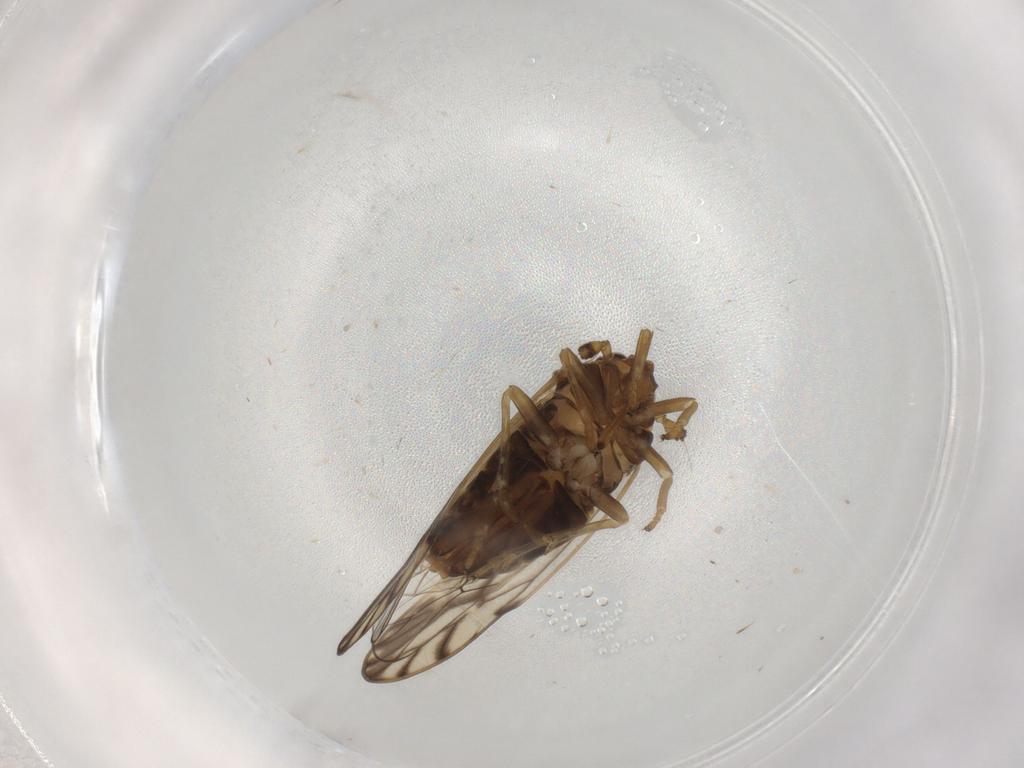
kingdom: Animalia
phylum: Arthropoda
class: Insecta
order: Hemiptera
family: Delphacidae
